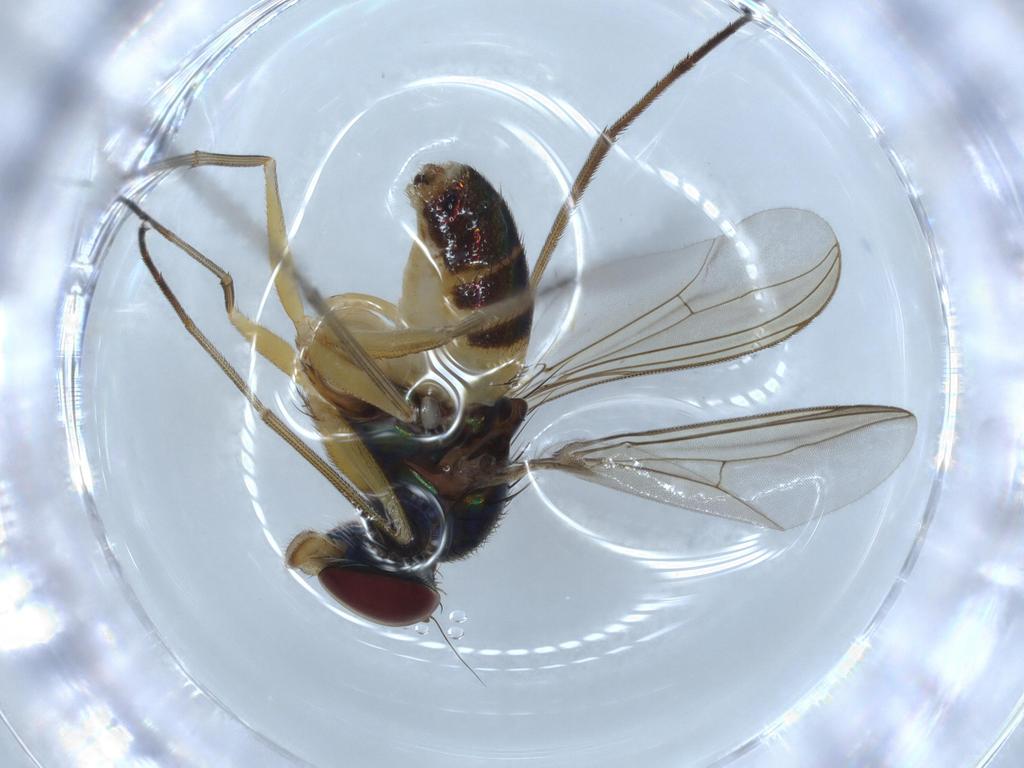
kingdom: Animalia
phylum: Arthropoda
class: Insecta
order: Diptera
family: Dolichopodidae
